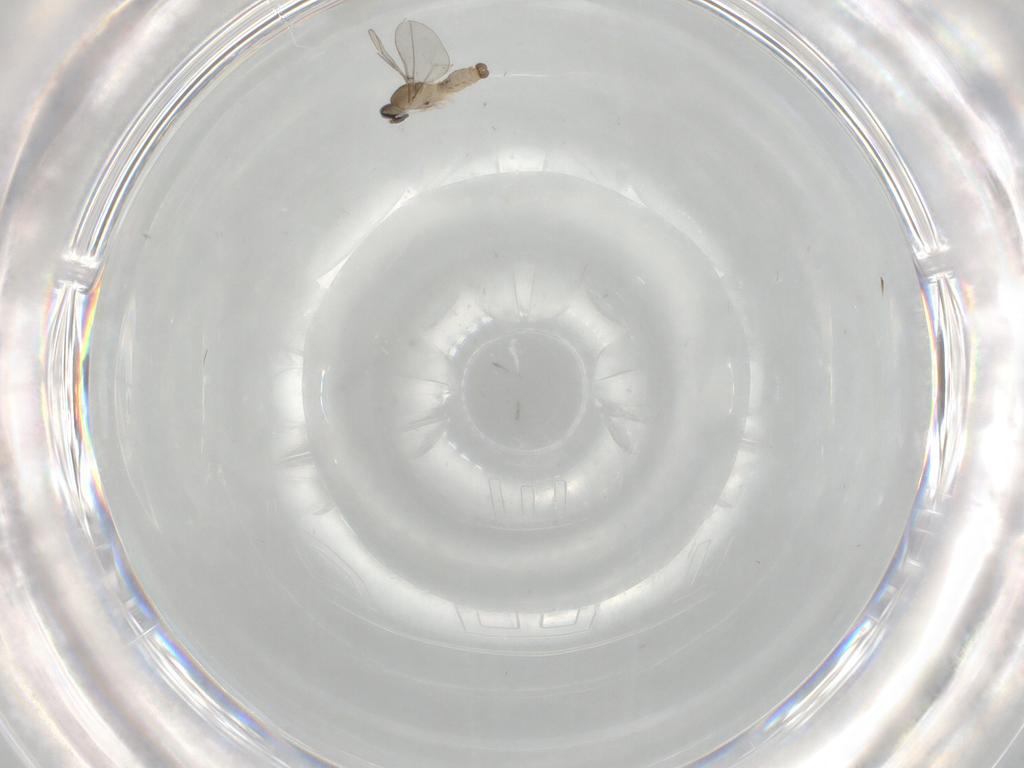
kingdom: Animalia
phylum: Arthropoda
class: Insecta
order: Diptera
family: Cecidomyiidae
